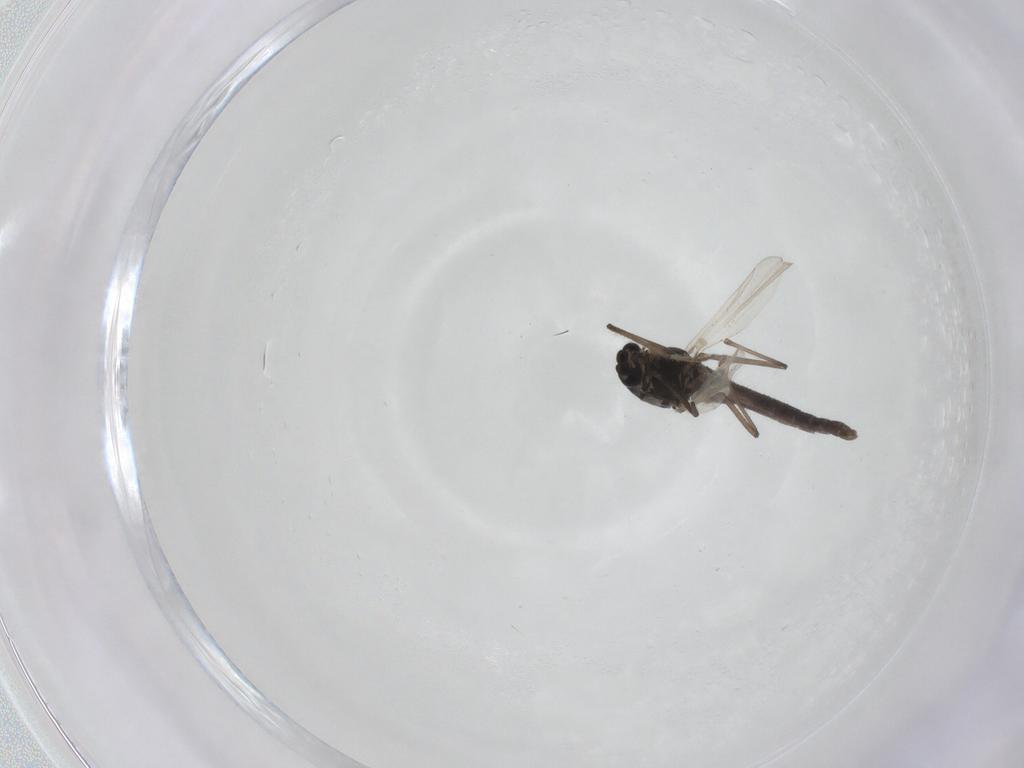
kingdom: Animalia
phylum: Arthropoda
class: Insecta
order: Diptera
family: Chironomidae
